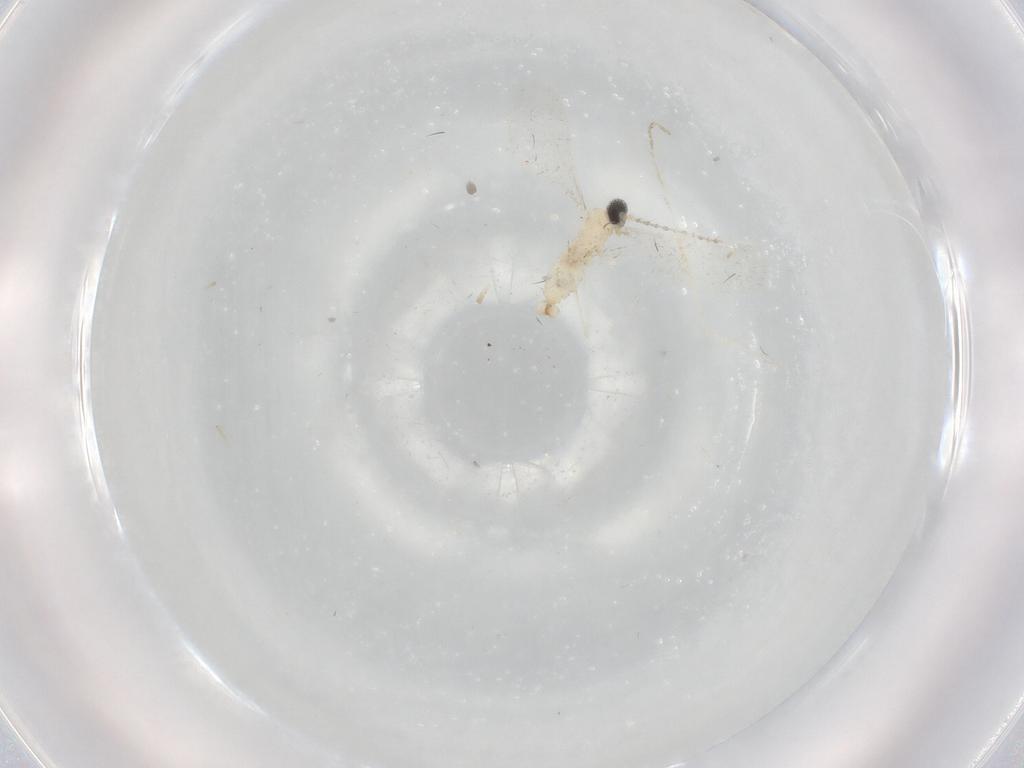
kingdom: Animalia
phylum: Arthropoda
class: Insecta
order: Diptera
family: Cecidomyiidae
